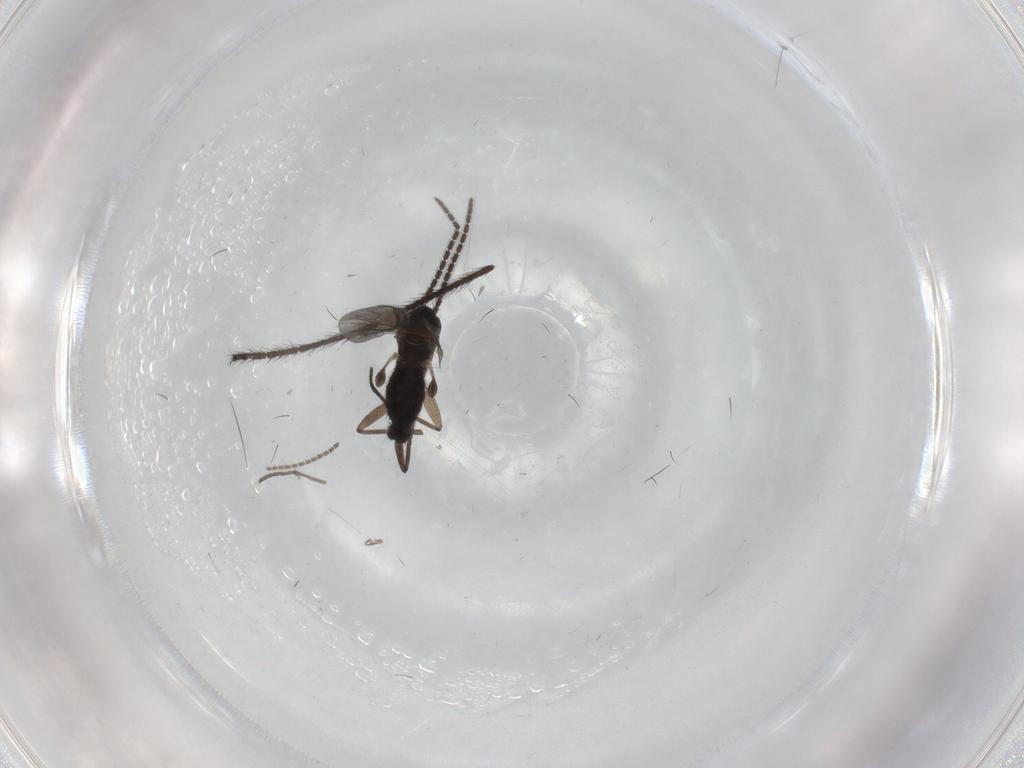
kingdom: Animalia
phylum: Arthropoda
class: Insecta
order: Diptera
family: Sciaridae
